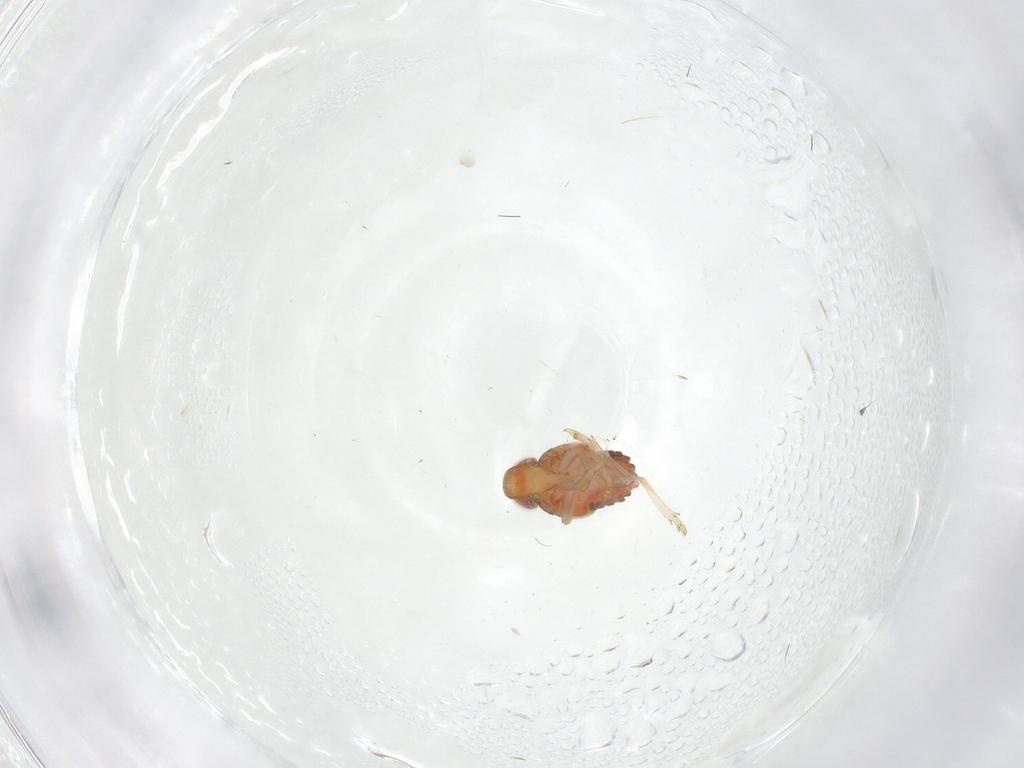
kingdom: Animalia
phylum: Arthropoda
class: Insecta
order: Hemiptera
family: Issidae
